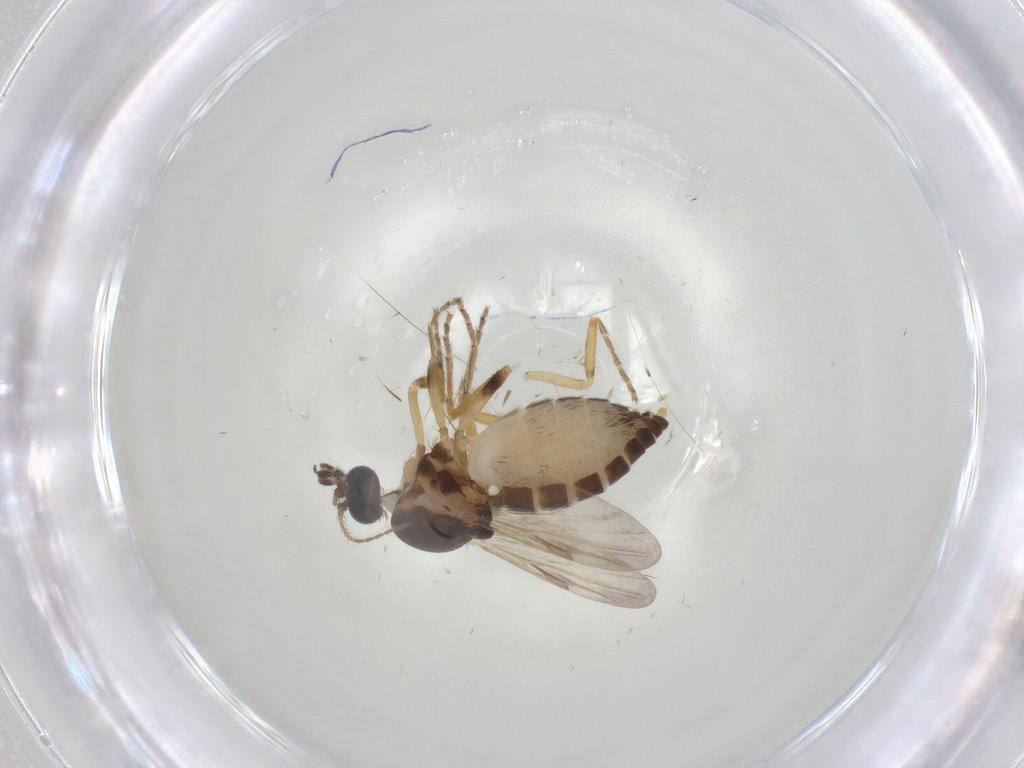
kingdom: Animalia
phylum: Arthropoda
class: Insecta
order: Diptera
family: Ceratopogonidae
